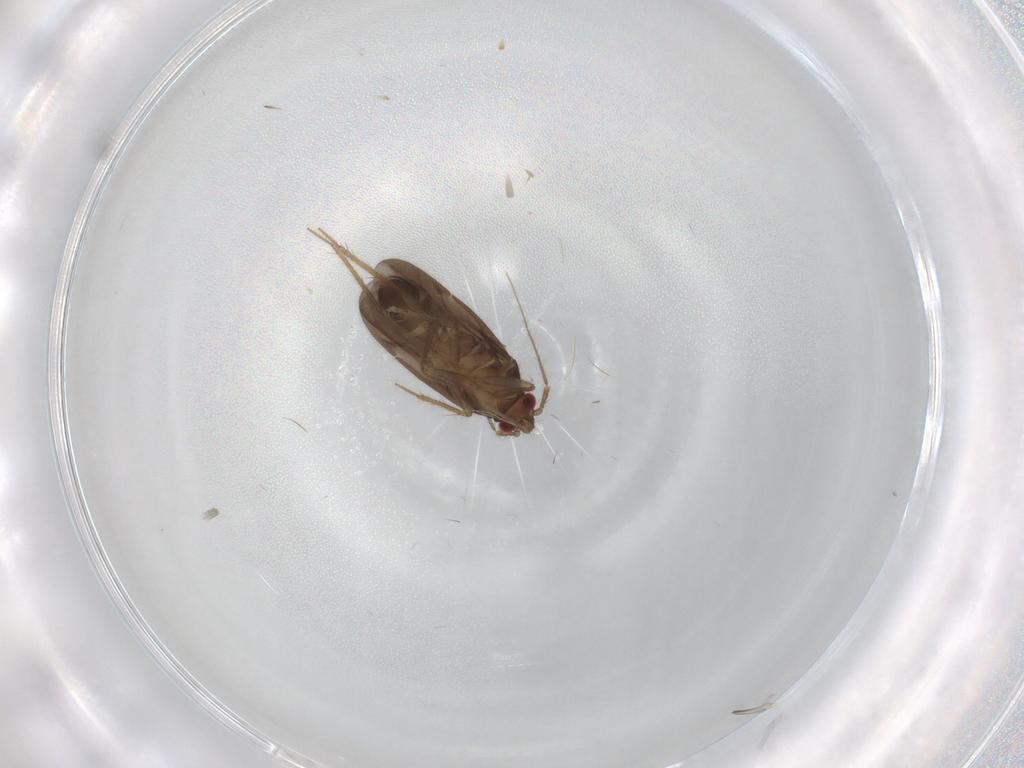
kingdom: Animalia
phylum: Arthropoda
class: Insecta
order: Hemiptera
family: Ceratocombidae
